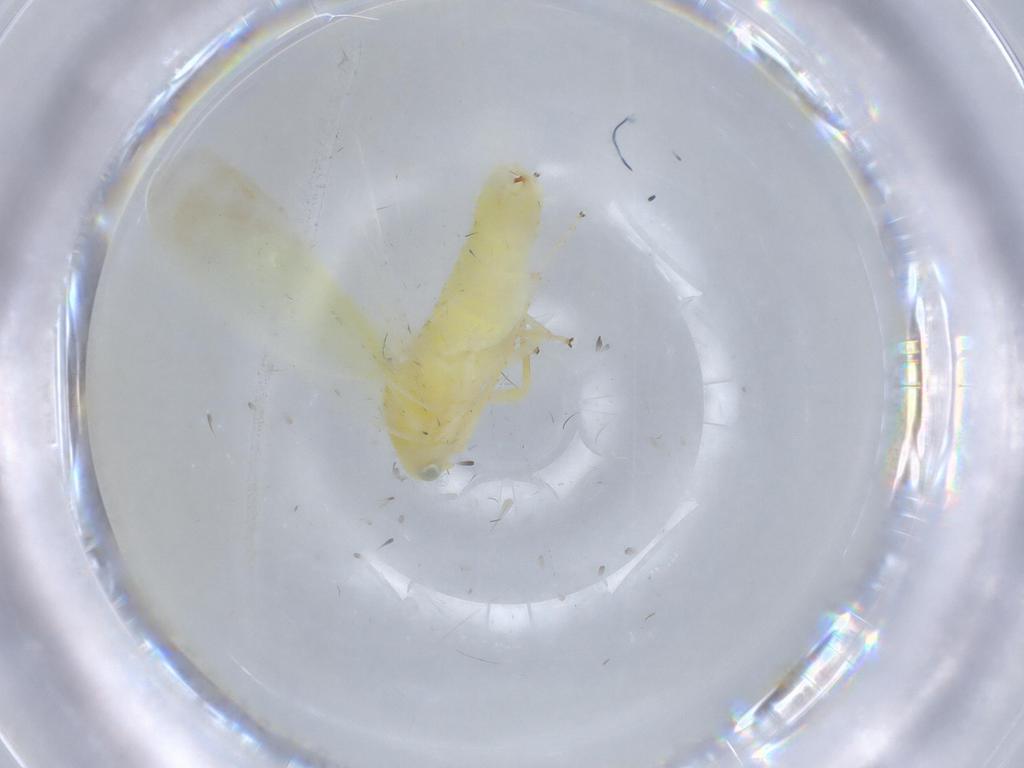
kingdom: Animalia
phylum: Arthropoda
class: Insecta
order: Hemiptera
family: Cicadellidae
